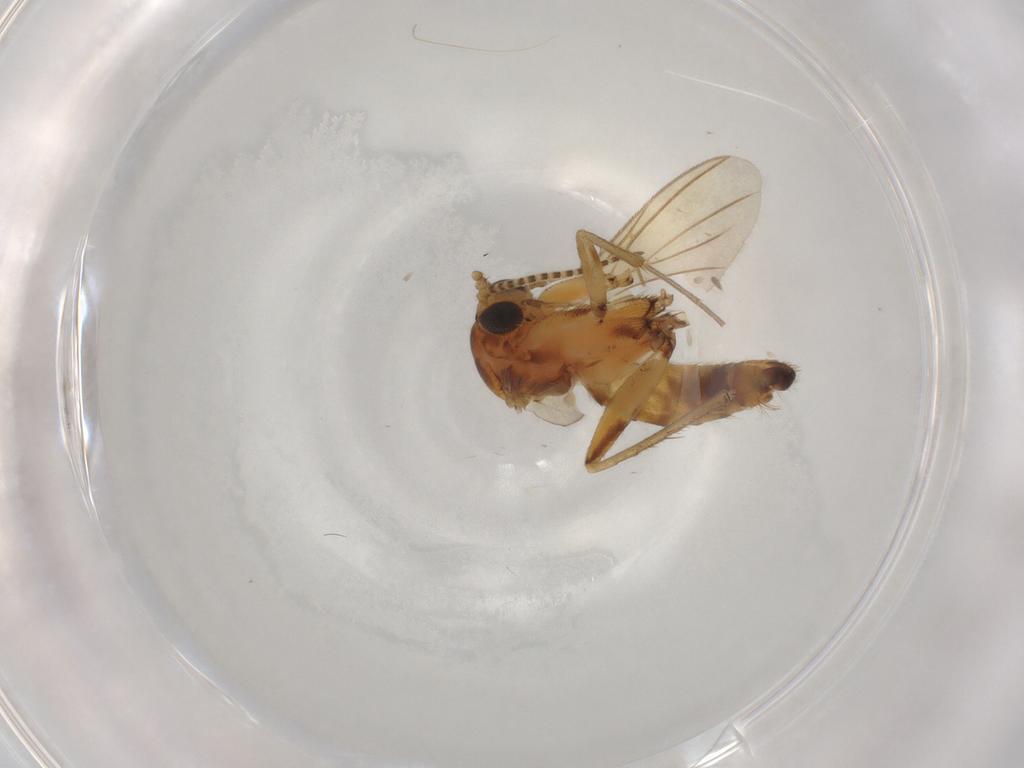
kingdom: Animalia
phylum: Arthropoda
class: Insecta
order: Diptera
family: Mycetophilidae
